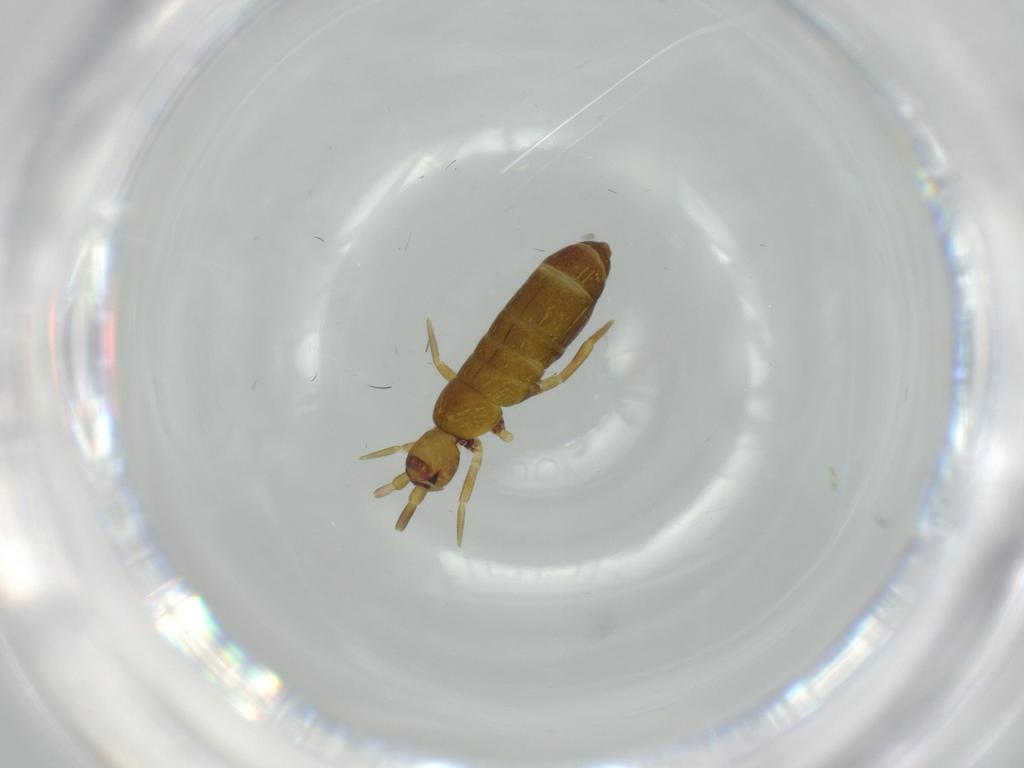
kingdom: Animalia
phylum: Arthropoda
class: Collembola
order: Entomobryomorpha
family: Tomoceridae
